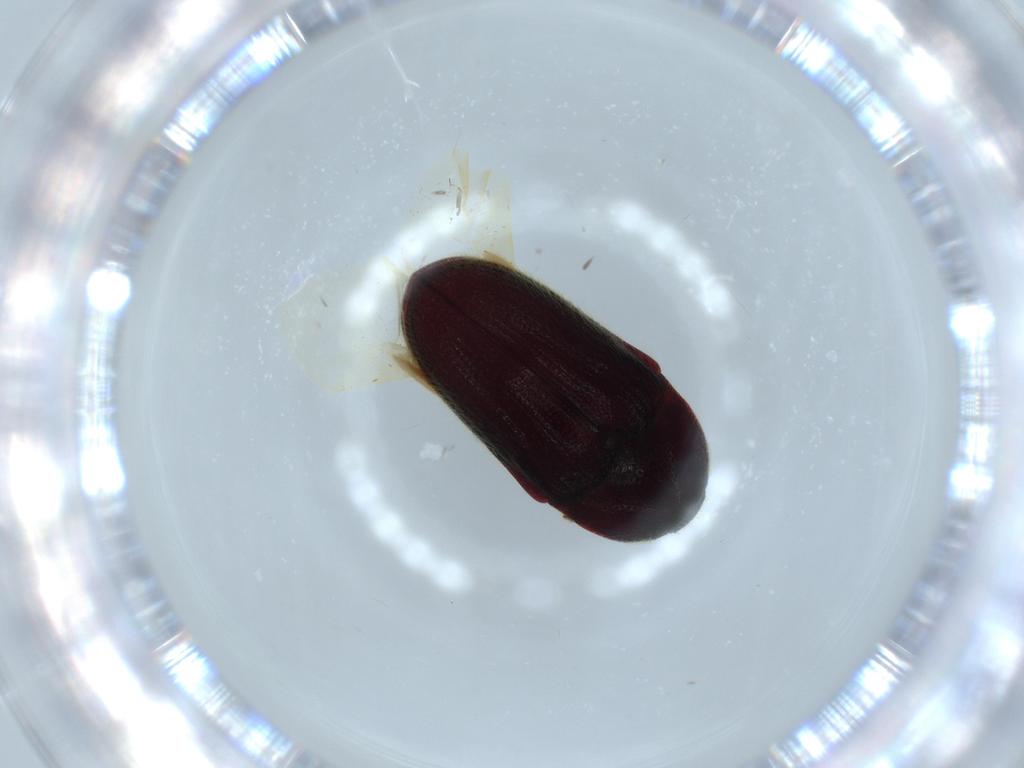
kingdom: Animalia
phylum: Arthropoda
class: Insecta
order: Coleoptera
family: Throscidae
